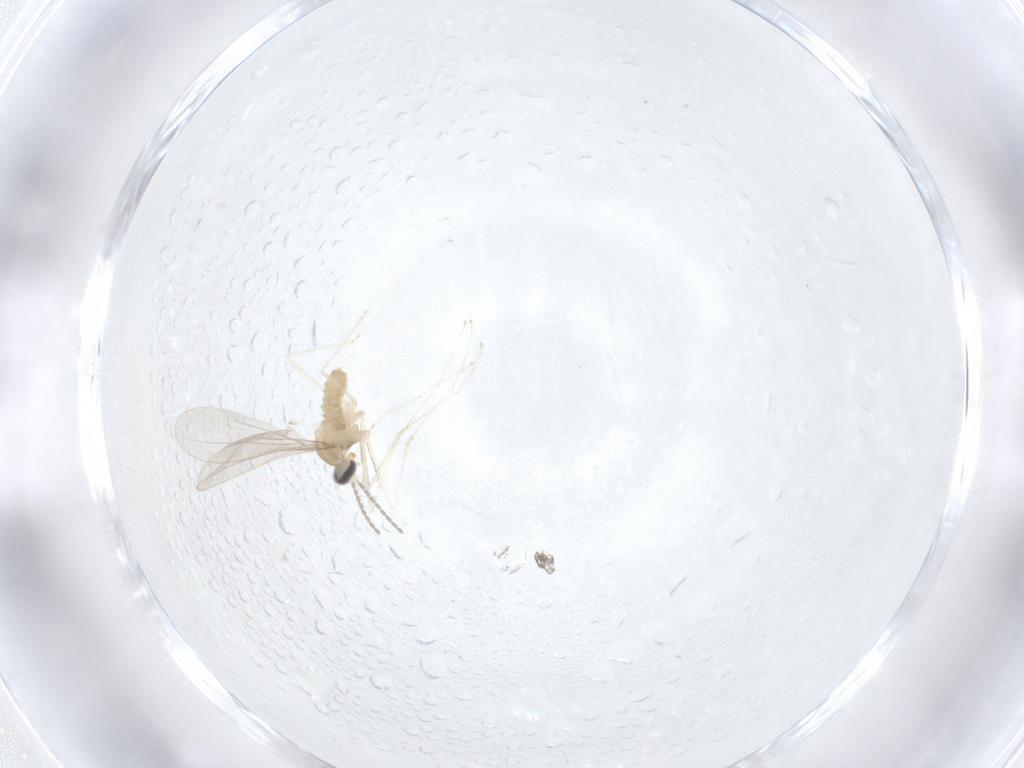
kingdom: Animalia
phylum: Arthropoda
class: Insecta
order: Diptera
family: Cecidomyiidae
